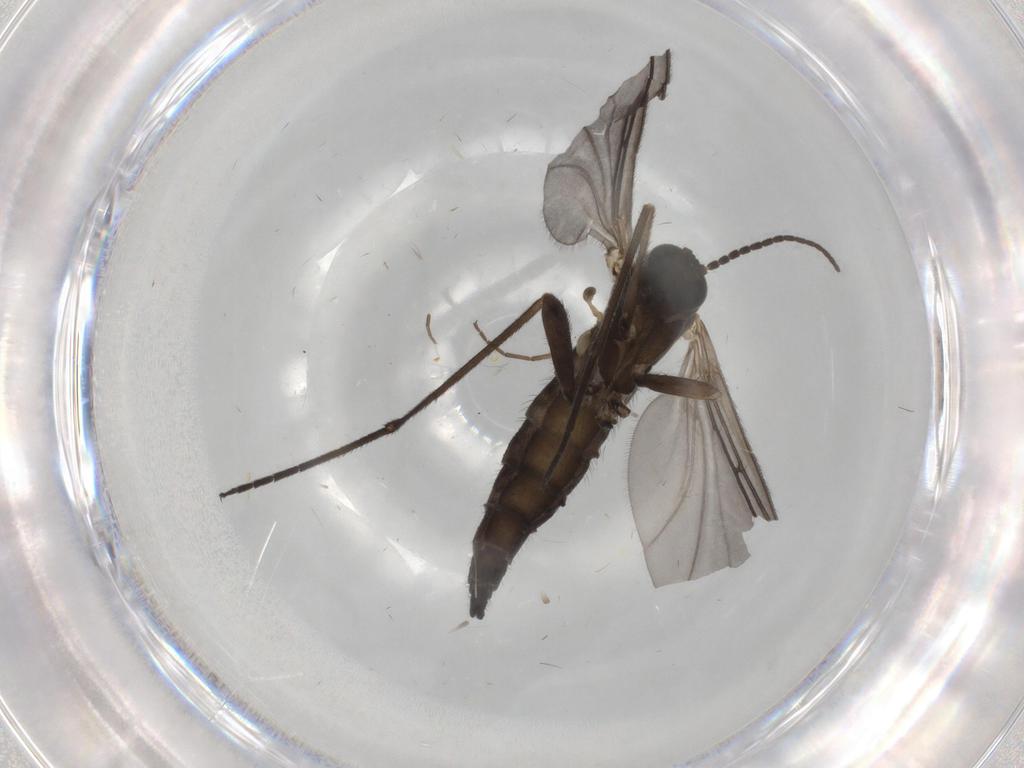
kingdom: Animalia
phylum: Arthropoda
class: Insecta
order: Diptera
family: Sciaridae
